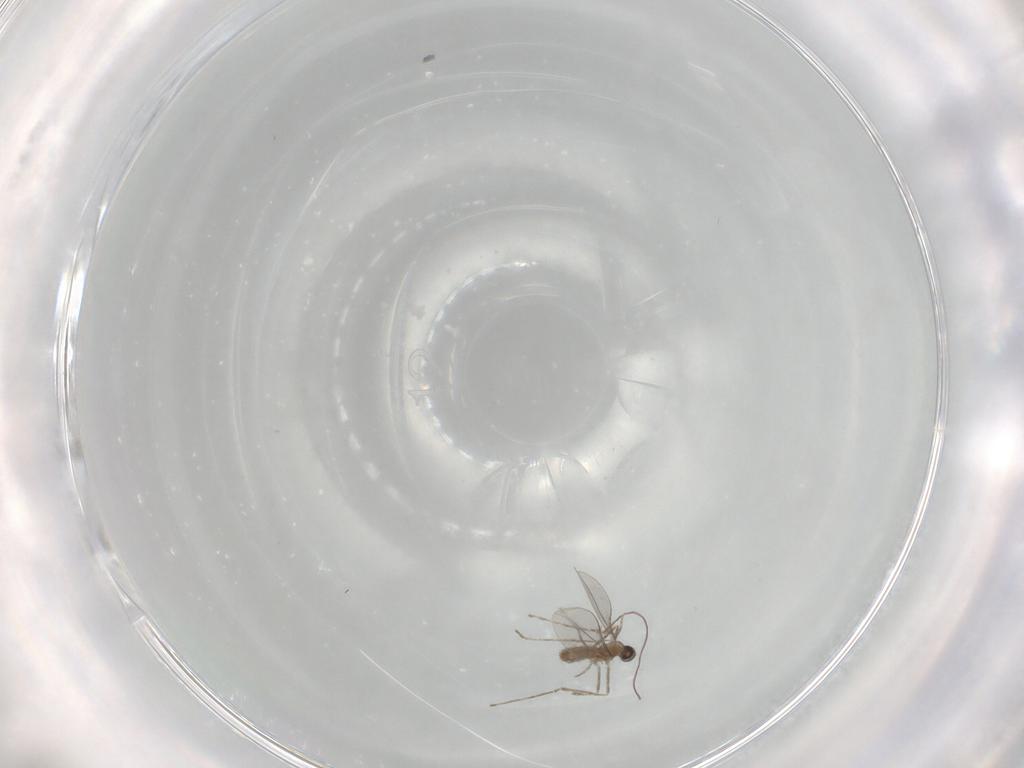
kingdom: Animalia
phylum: Arthropoda
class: Insecta
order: Diptera
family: Cecidomyiidae
